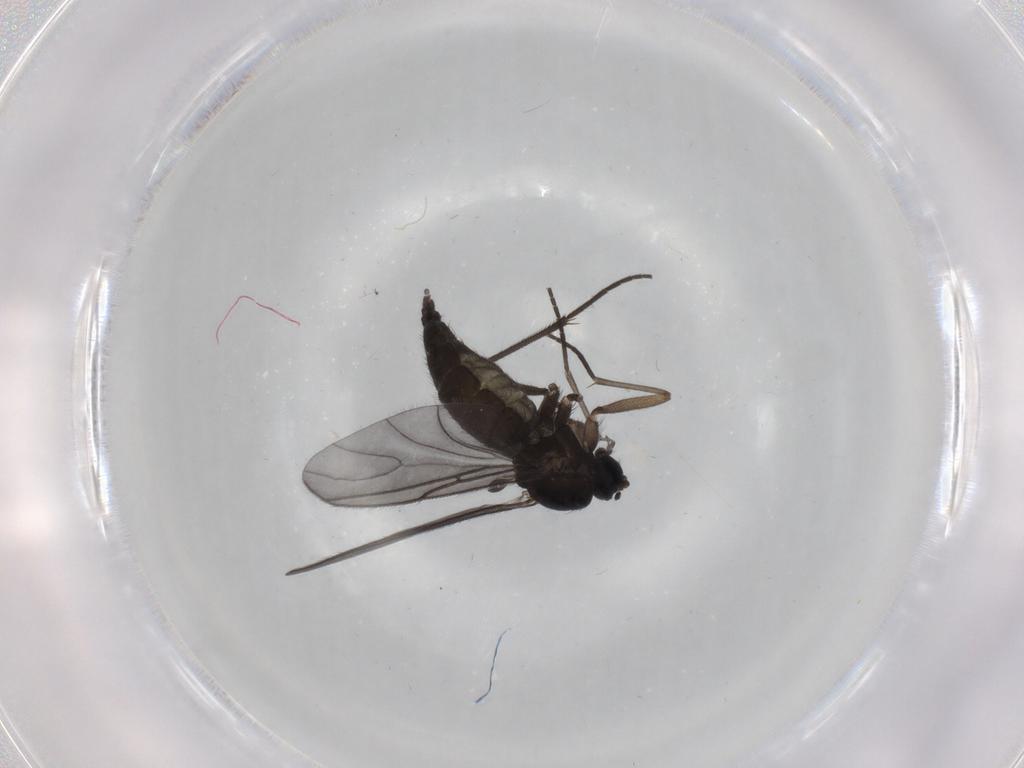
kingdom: Animalia
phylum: Arthropoda
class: Insecta
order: Diptera
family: Sciaridae
